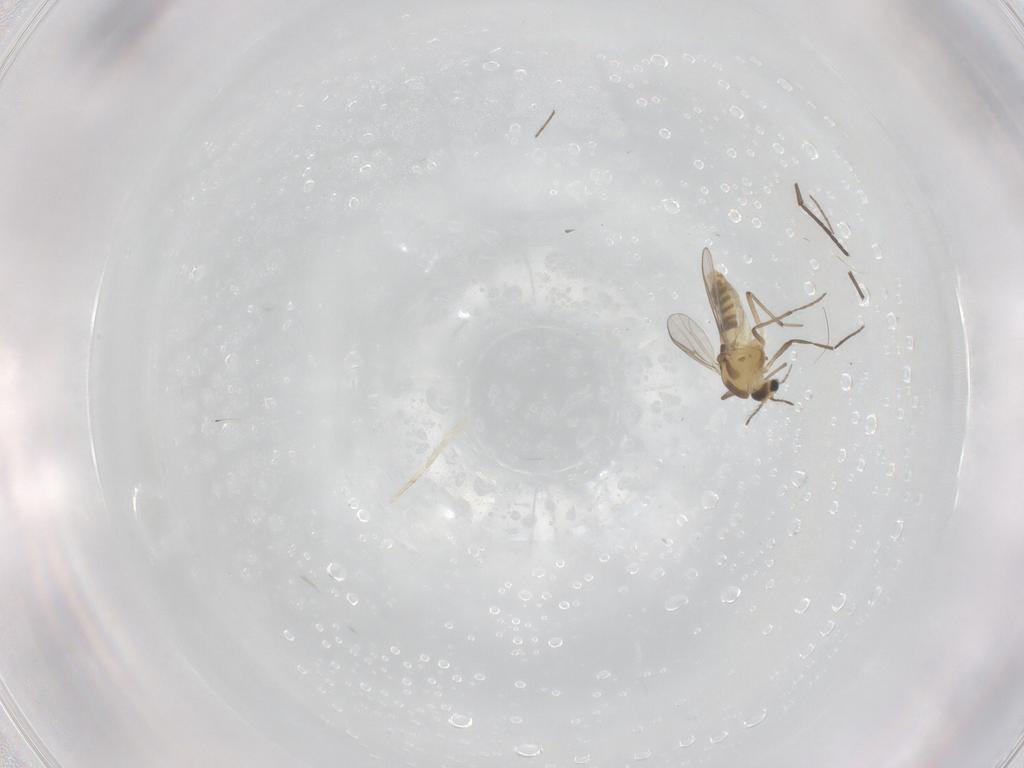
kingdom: Animalia
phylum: Arthropoda
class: Insecta
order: Diptera
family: Sciaridae
